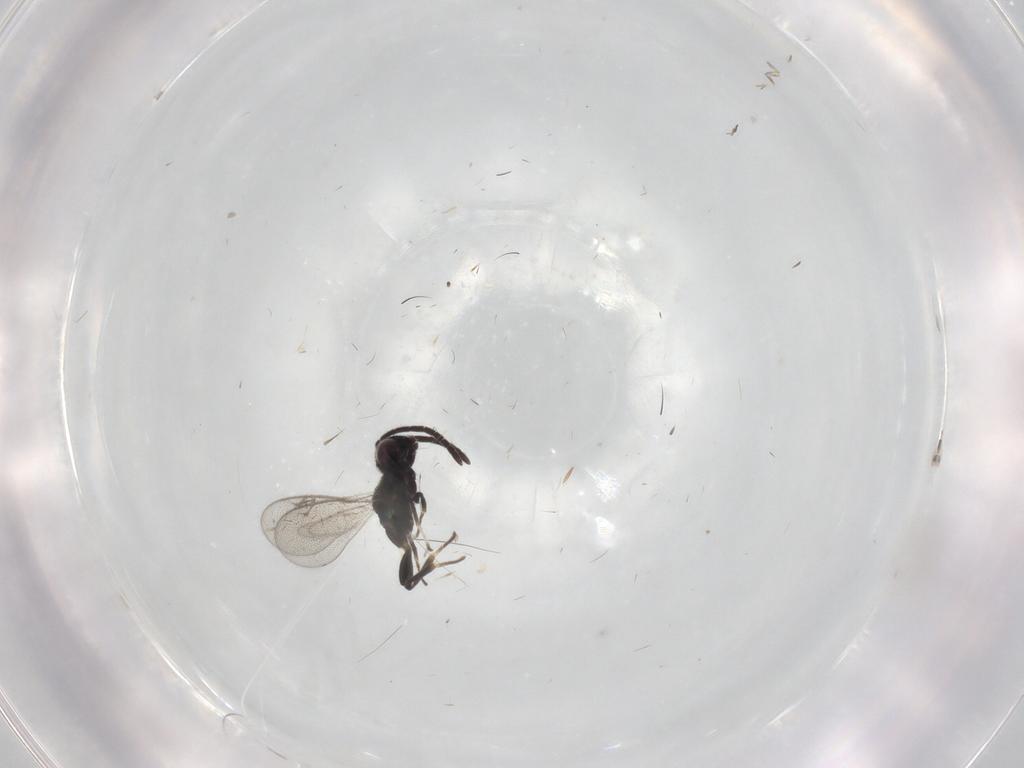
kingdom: Animalia
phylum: Arthropoda
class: Insecta
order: Hymenoptera
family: Eupelmidae
